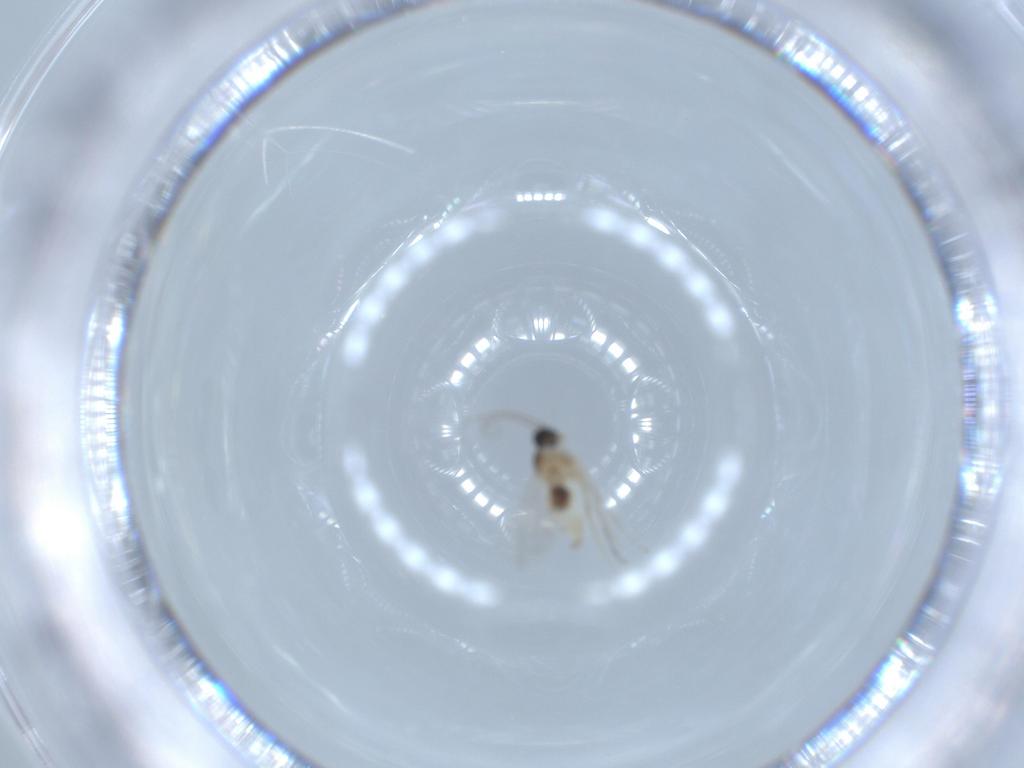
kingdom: Animalia
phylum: Arthropoda
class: Insecta
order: Diptera
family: Cecidomyiidae
